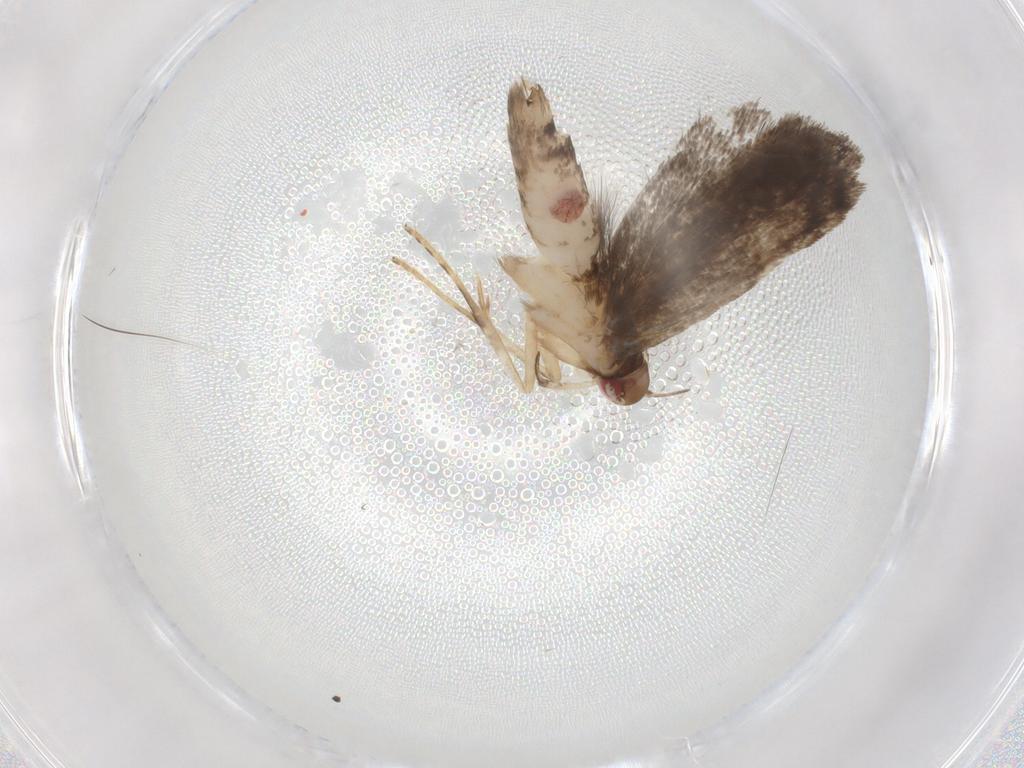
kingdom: Animalia
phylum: Arthropoda
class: Insecta
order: Lepidoptera
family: Gelechiidae
